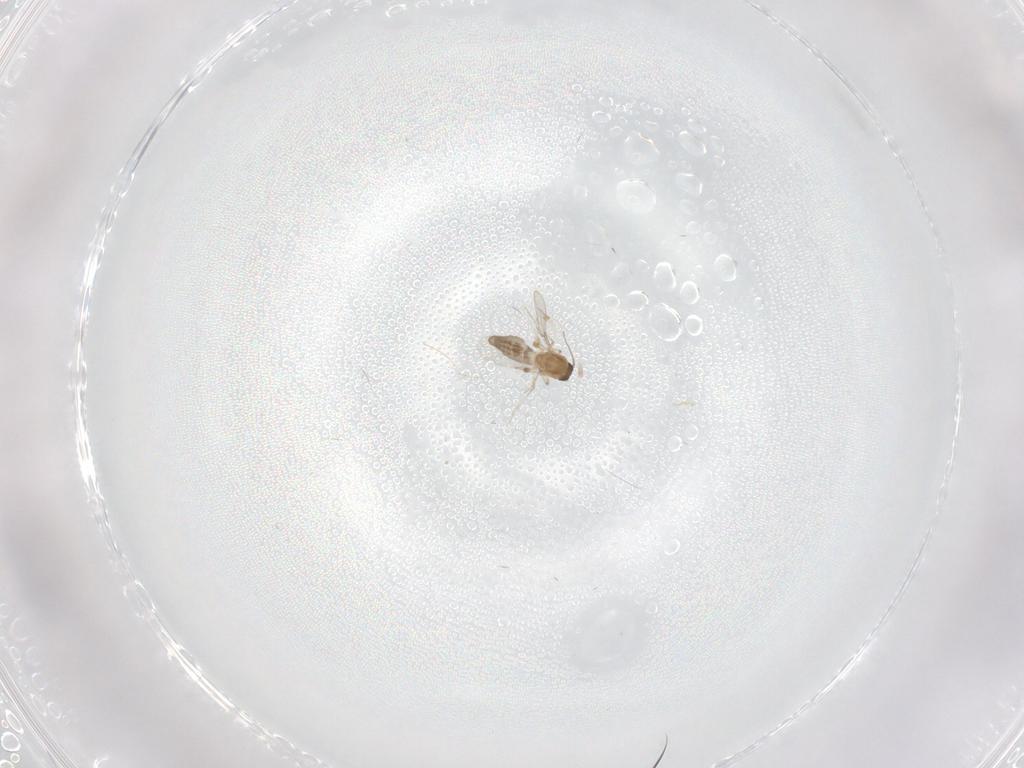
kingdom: Animalia
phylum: Arthropoda
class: Insecta
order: Diptera
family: Ceratopogonidae
